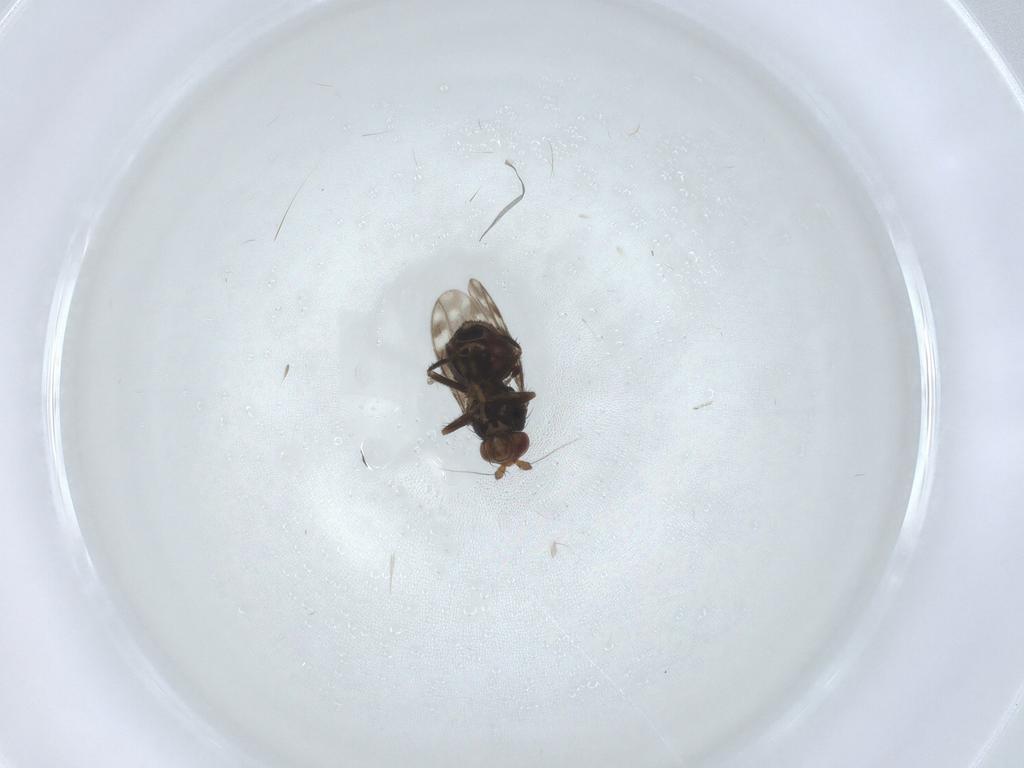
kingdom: Animalia
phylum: Arthropoda
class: Insecta
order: Diptera
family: Sphaeroceridae
